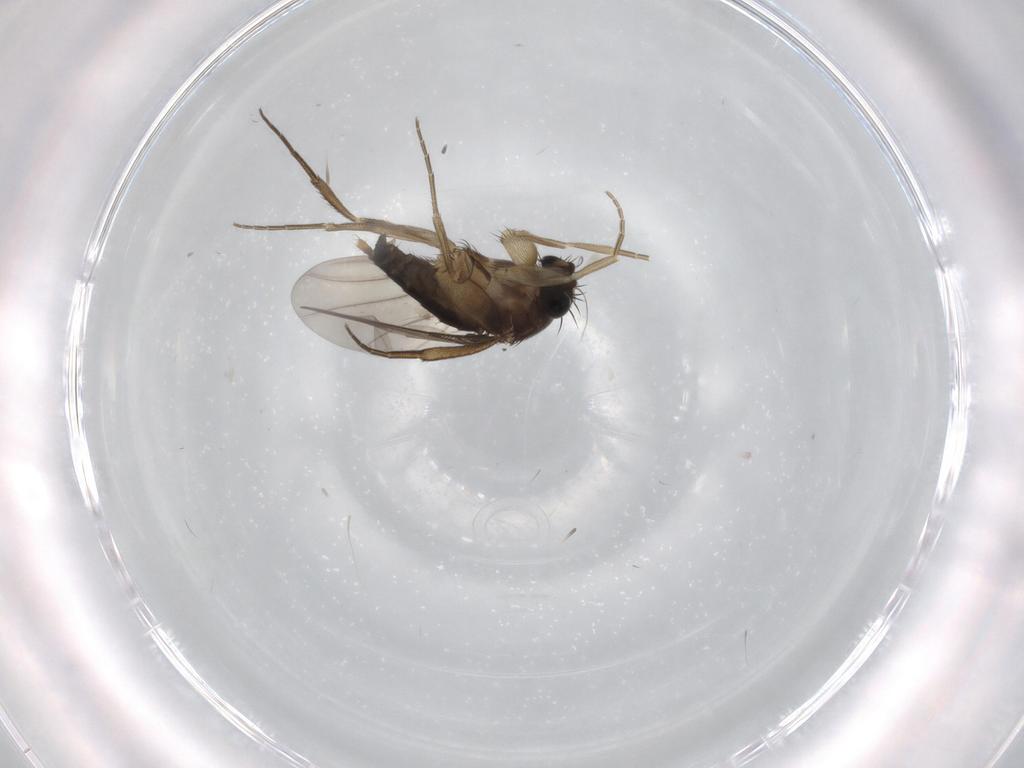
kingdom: Animalia
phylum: Arthropoda
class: Insecta
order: Diptera
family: Phoridae
